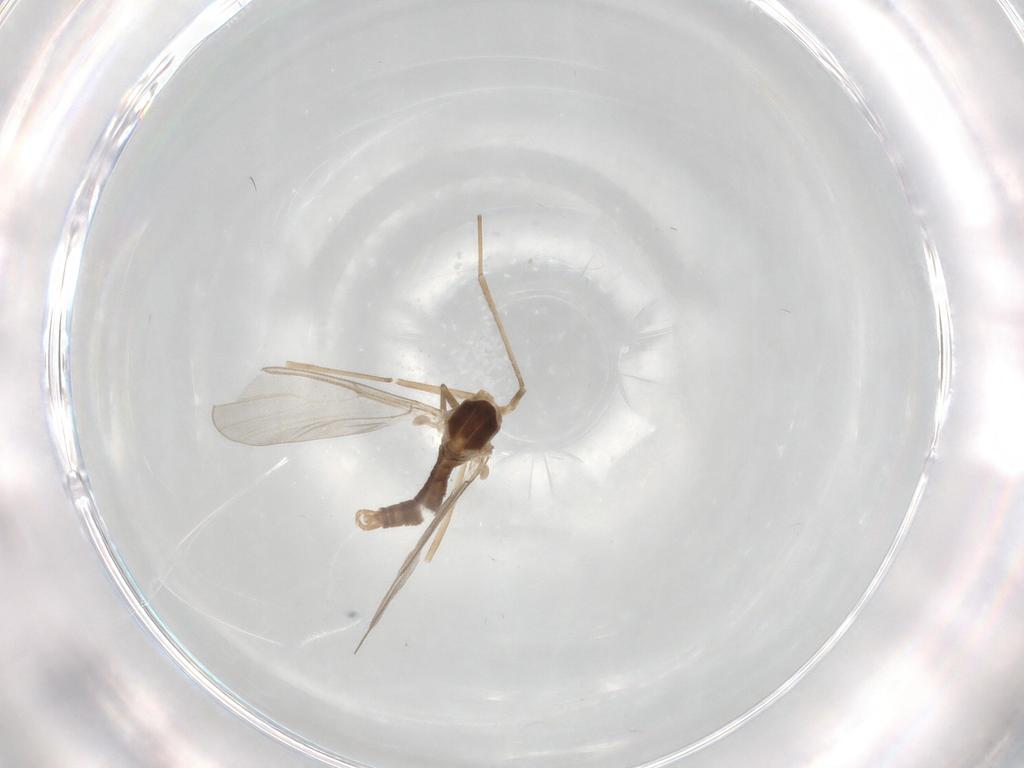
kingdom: Animalia
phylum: Arthropoda
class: Insecta
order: Diptera
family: Cecidomyiidae
